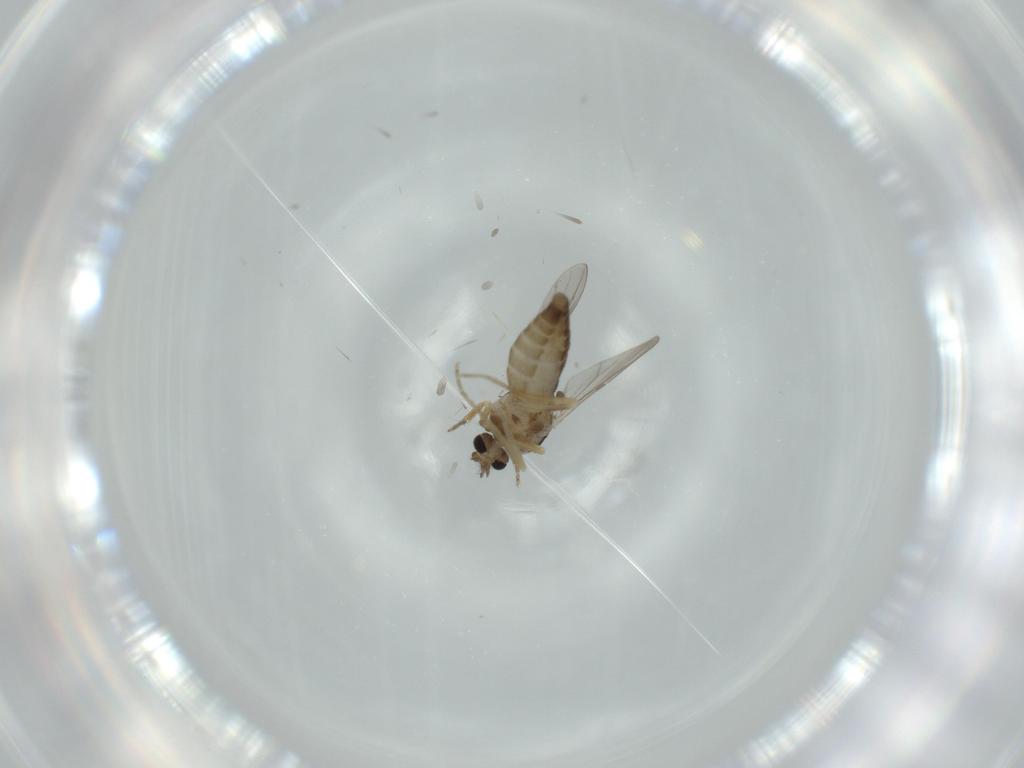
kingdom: Animalia
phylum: Arthropoda
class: Insecta
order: Diptera
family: Ceratopogonidae
